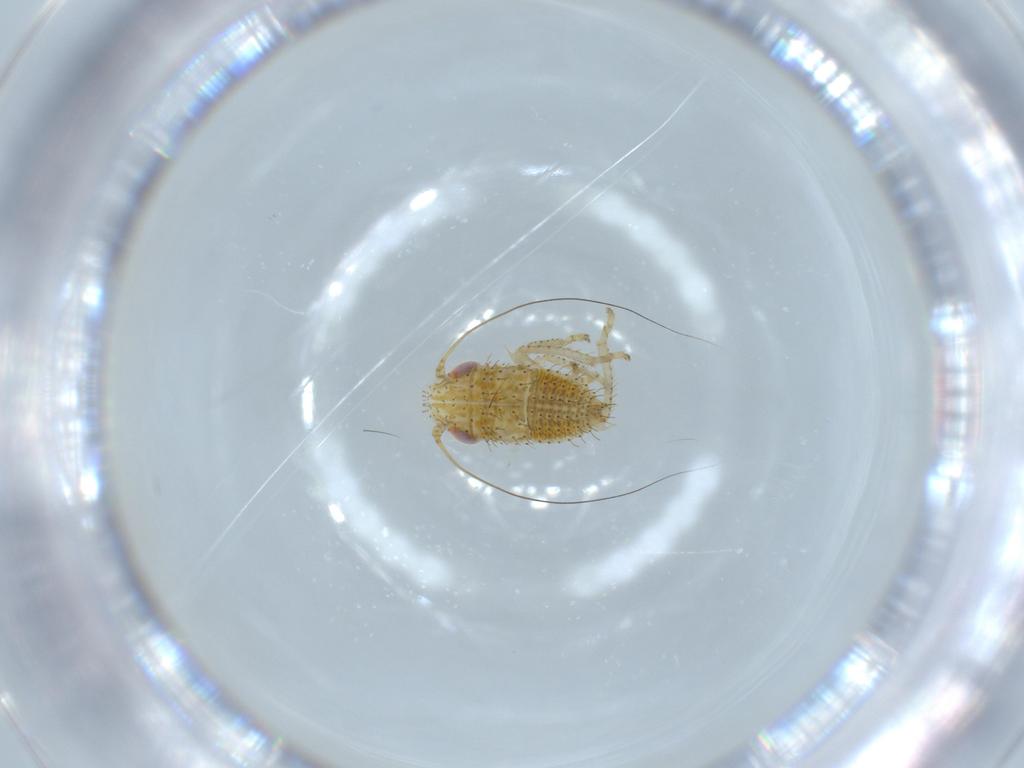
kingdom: Animalia
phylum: Arthropoda
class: Insecta
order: Hemiptera
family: Cicadellidae
